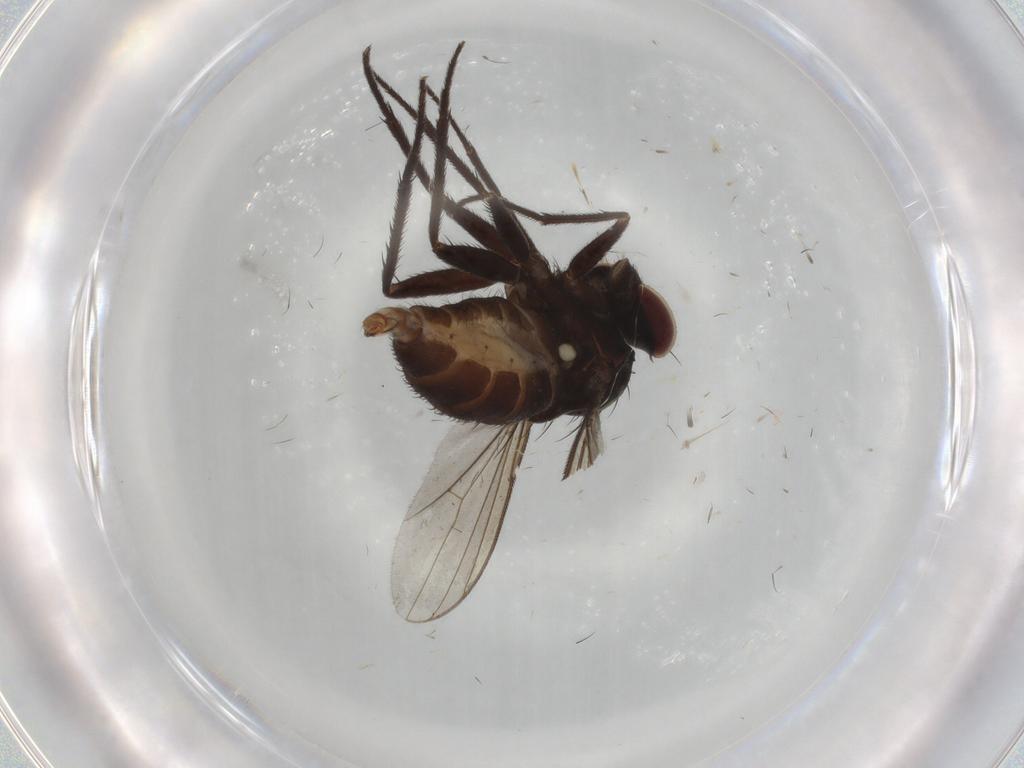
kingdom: Animalia
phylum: Arthropoda
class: Insecta
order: Diptera
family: Dolichopodidae
